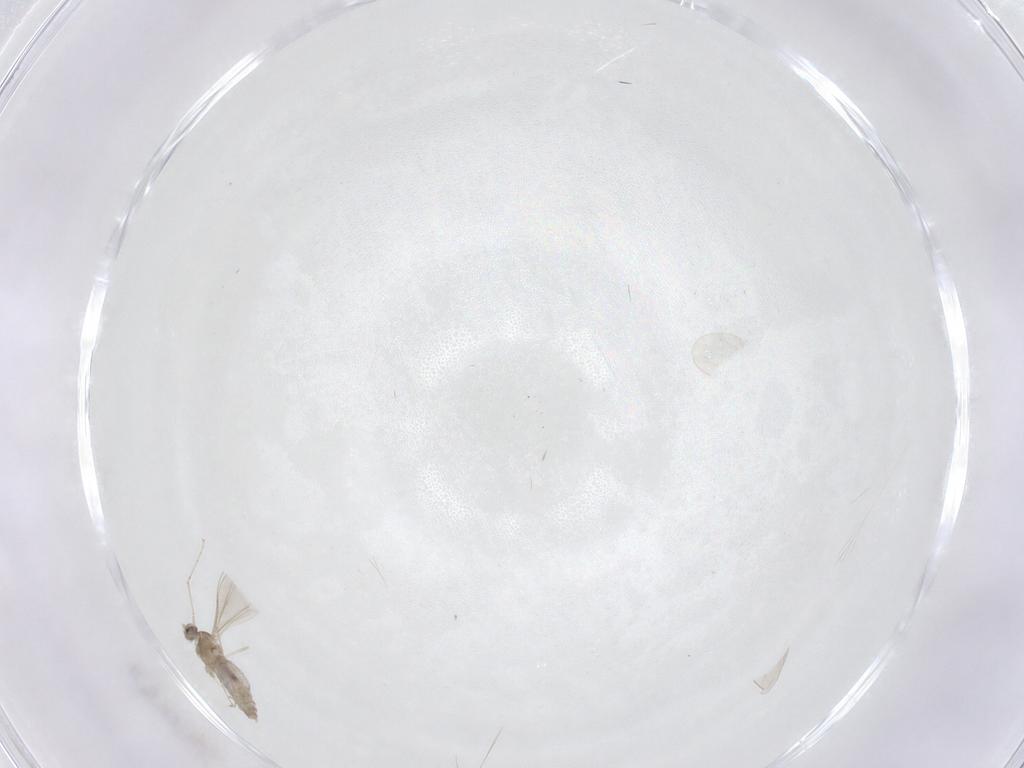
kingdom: Animalia
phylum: Arthropoda
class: Insecta
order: Diptera
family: Cecidomyiidae
